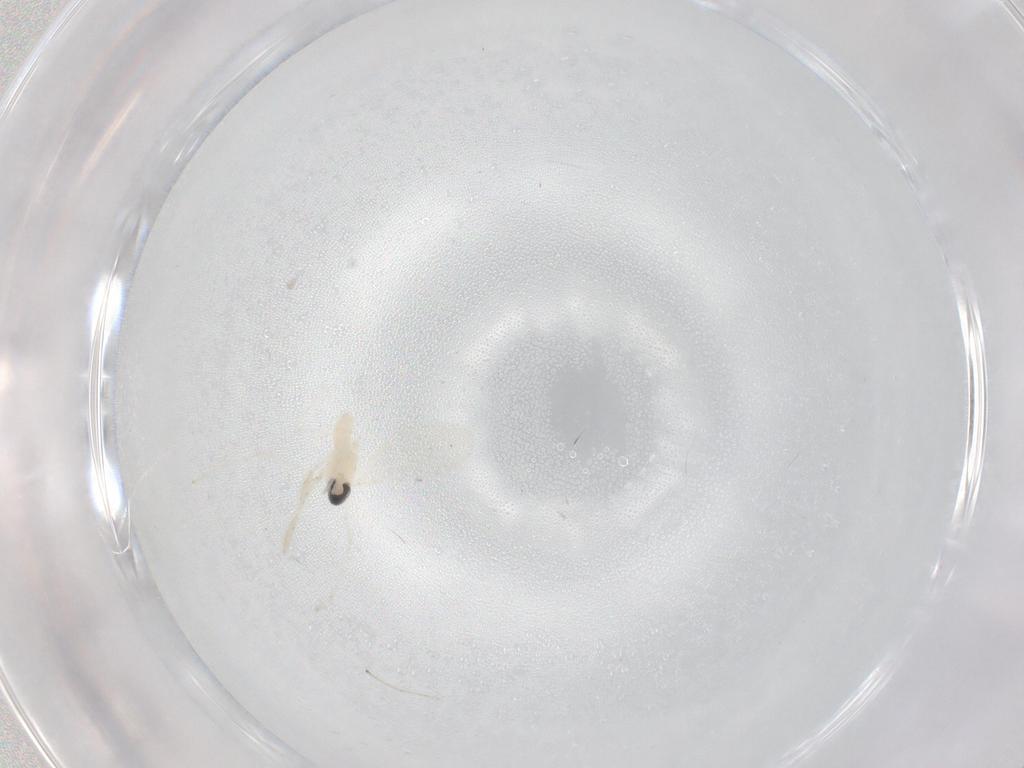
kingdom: Animalia
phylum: Arthropoda
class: Insecta
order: Diptera
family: Cecidomyiidae
